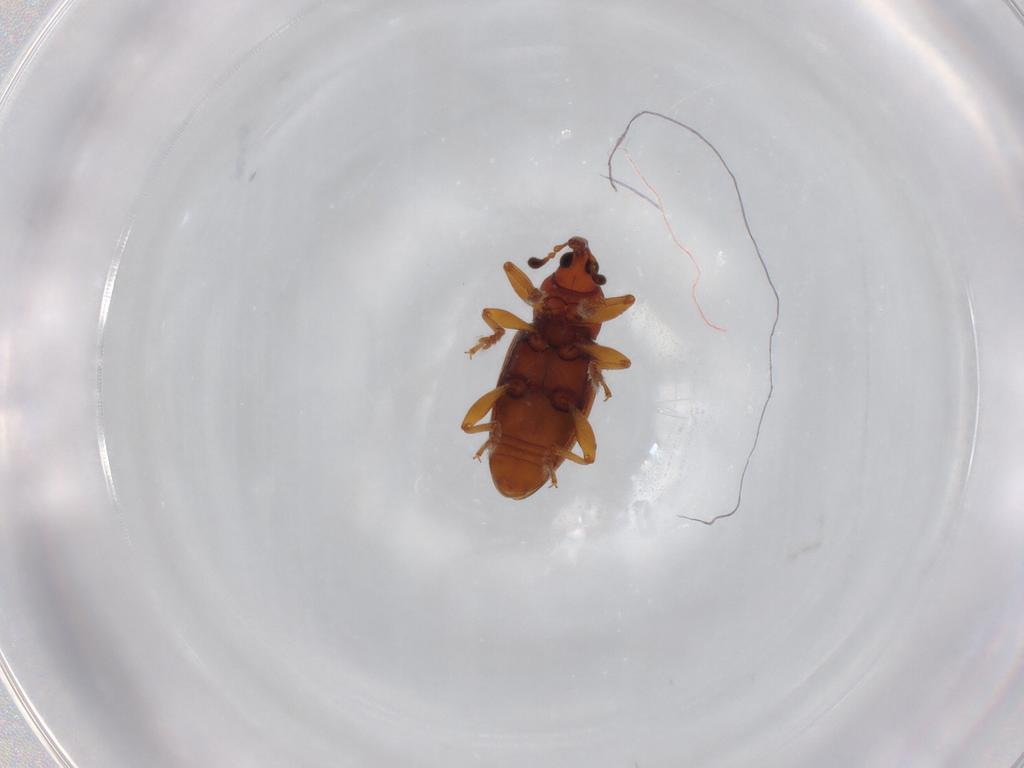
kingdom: Animalia
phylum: Arthropoda
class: Insecta
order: Coleoptera
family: Curculionidae
